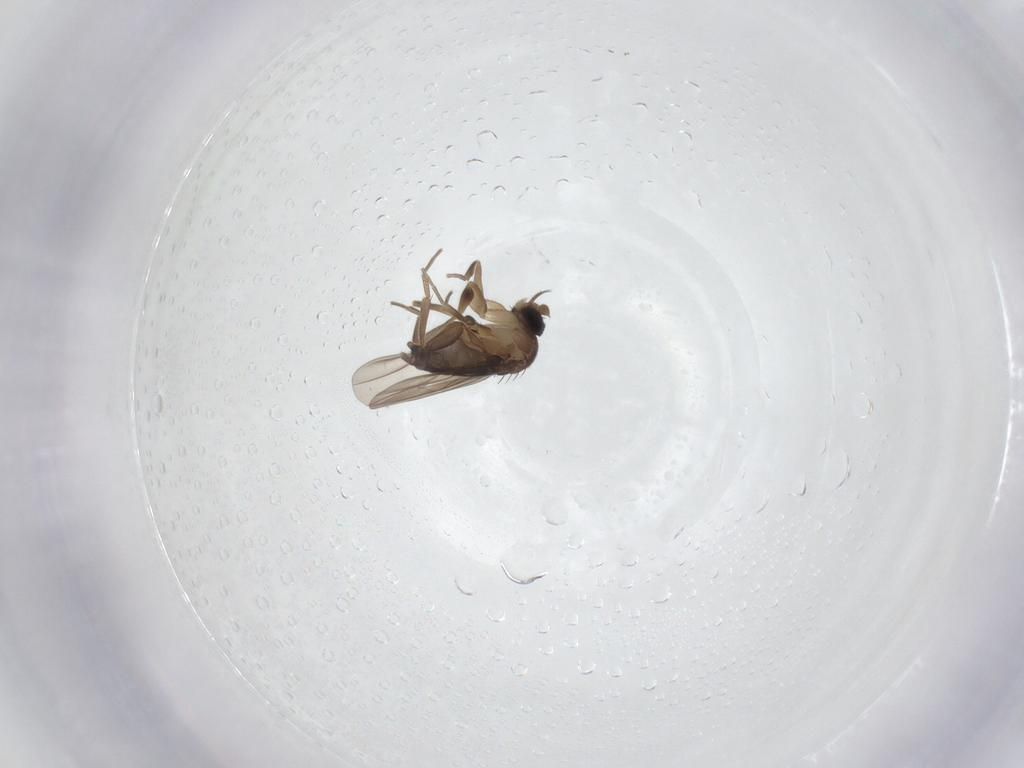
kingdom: Animalia
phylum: Arthropoda
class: Insecta
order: Diptera
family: Phoridae
